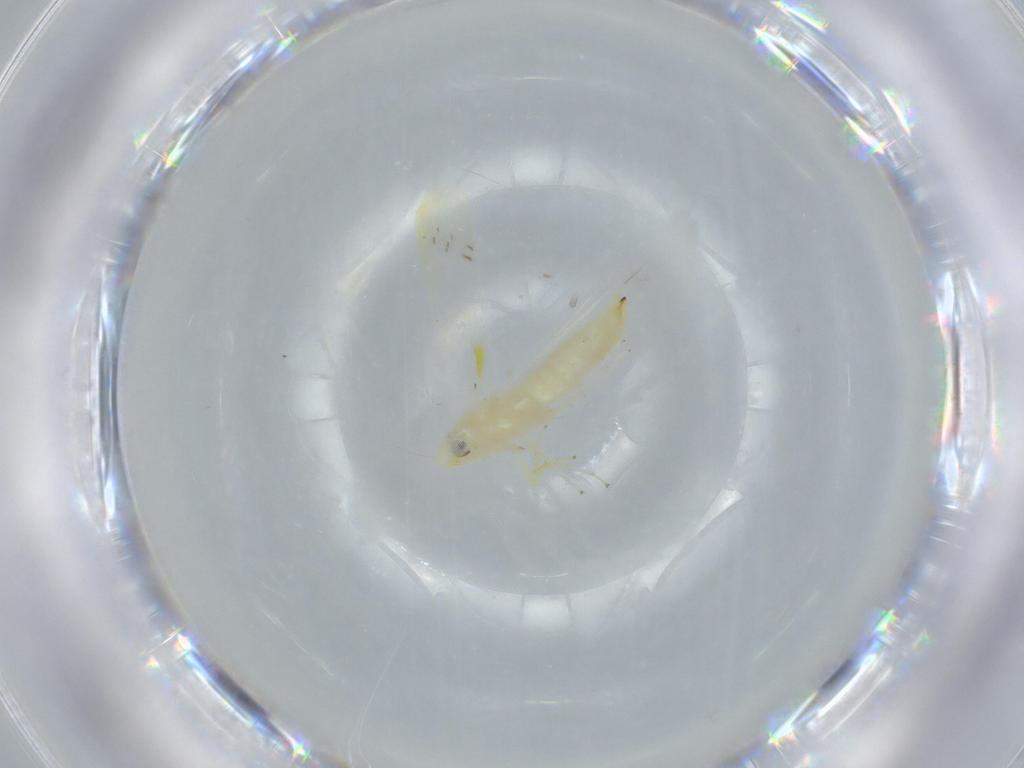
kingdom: Animalia
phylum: Arthropoda
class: Insecta
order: Hemiptera
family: Cicadellidae
